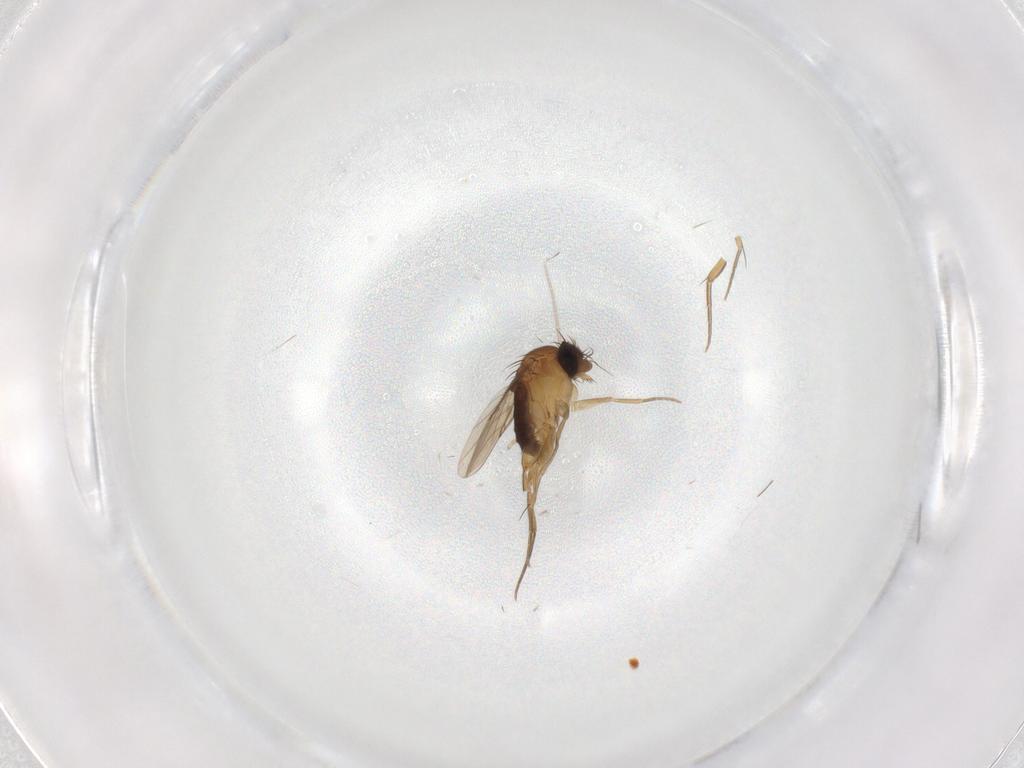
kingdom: Animalia
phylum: Arthropoda
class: Insecta
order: Diptera
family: Phoridae
